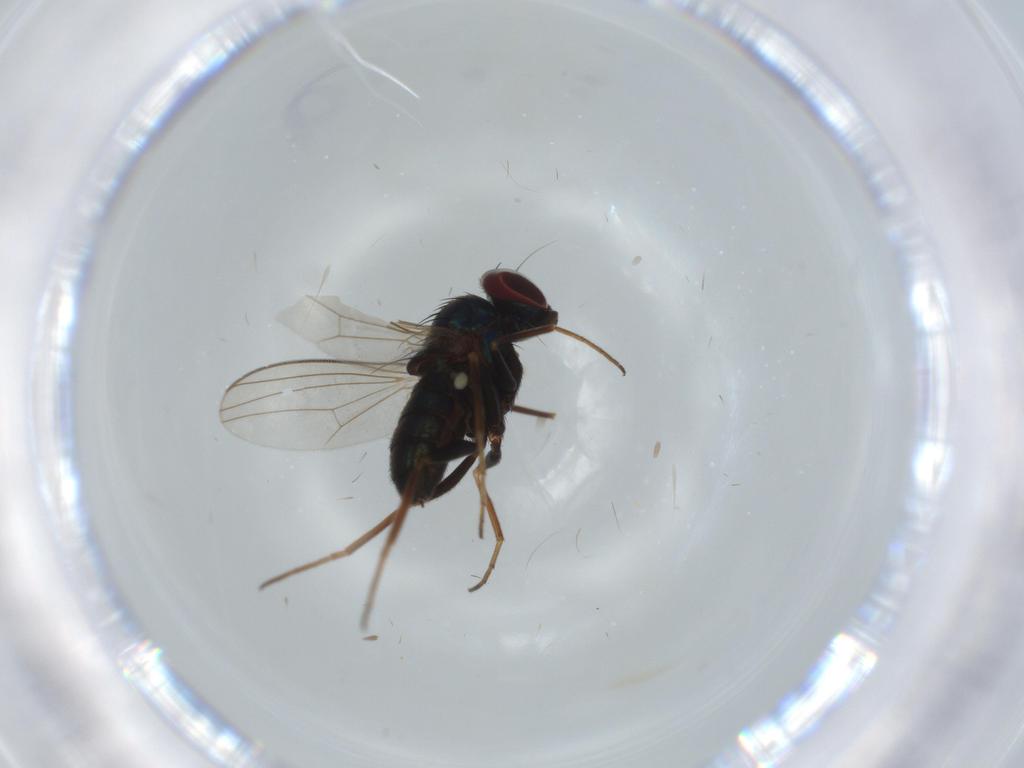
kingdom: Animalia
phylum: Arthropoda
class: Insecta
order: Diptera
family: Dolichopodidae
